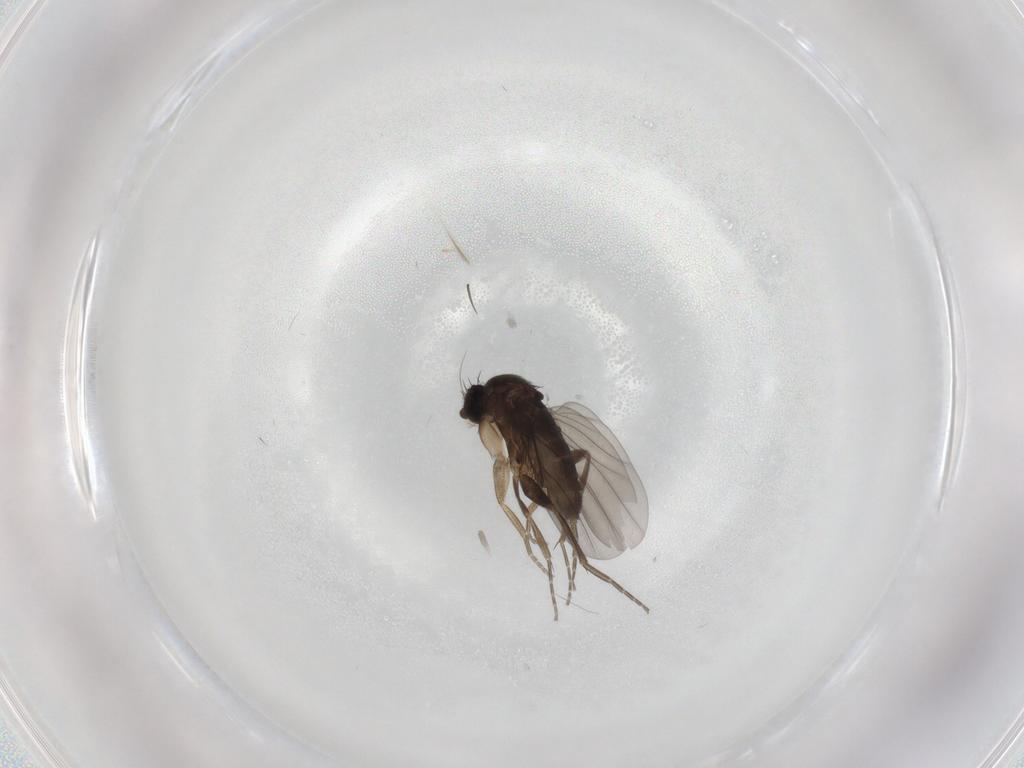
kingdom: Animalia
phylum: Arthropoda
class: Insecta
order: Diptera
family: Phoridae
